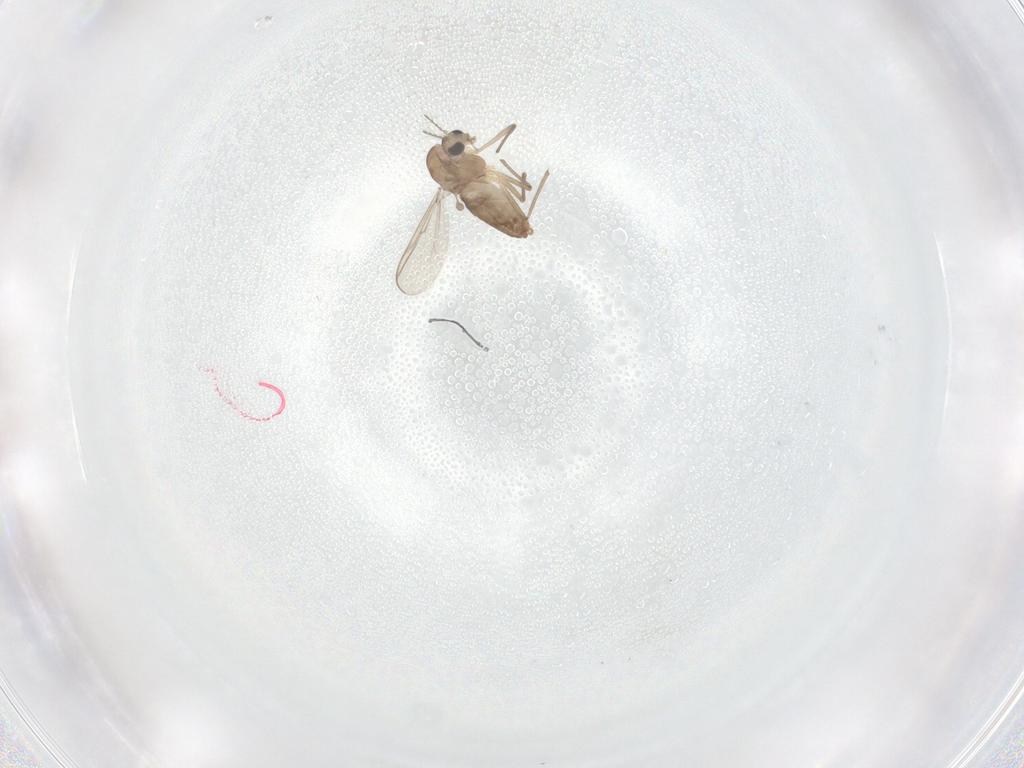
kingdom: Animalia
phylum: Arthropoda
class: Insecta
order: Diptera
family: Chironomidae
